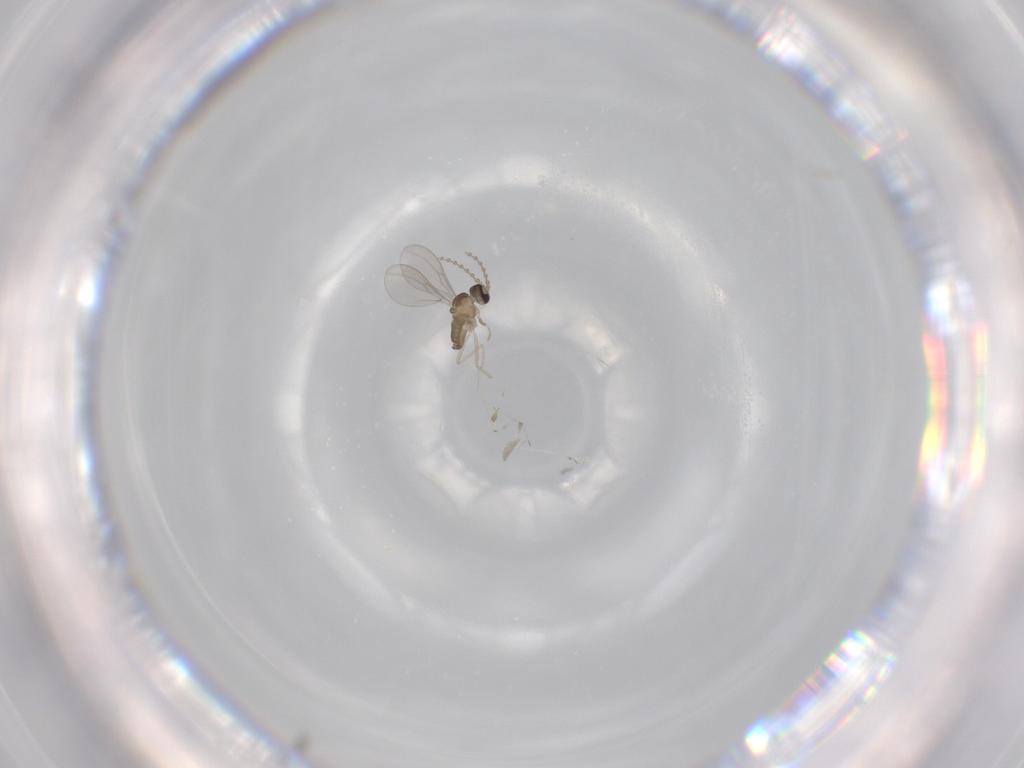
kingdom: Animalia
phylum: Arthropoda
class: Insecta
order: Diptera
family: Cecidomyiidae
